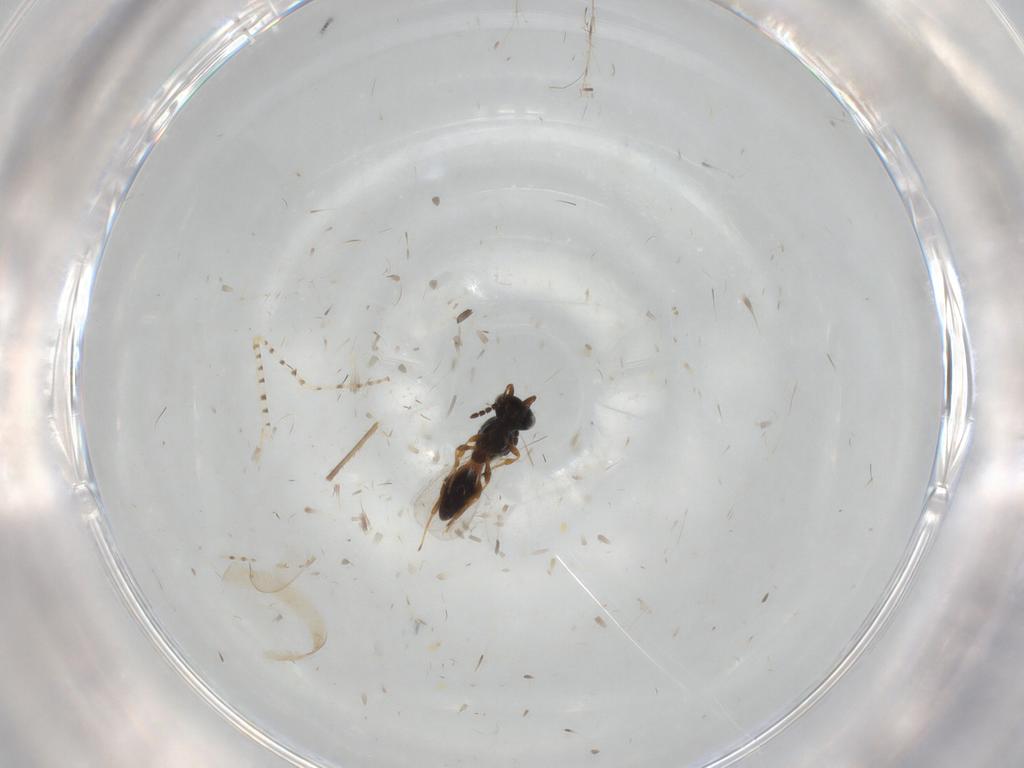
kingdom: Animalia
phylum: Arthropoda
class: Insecta
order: Hymenoptera
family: Platygastridae
